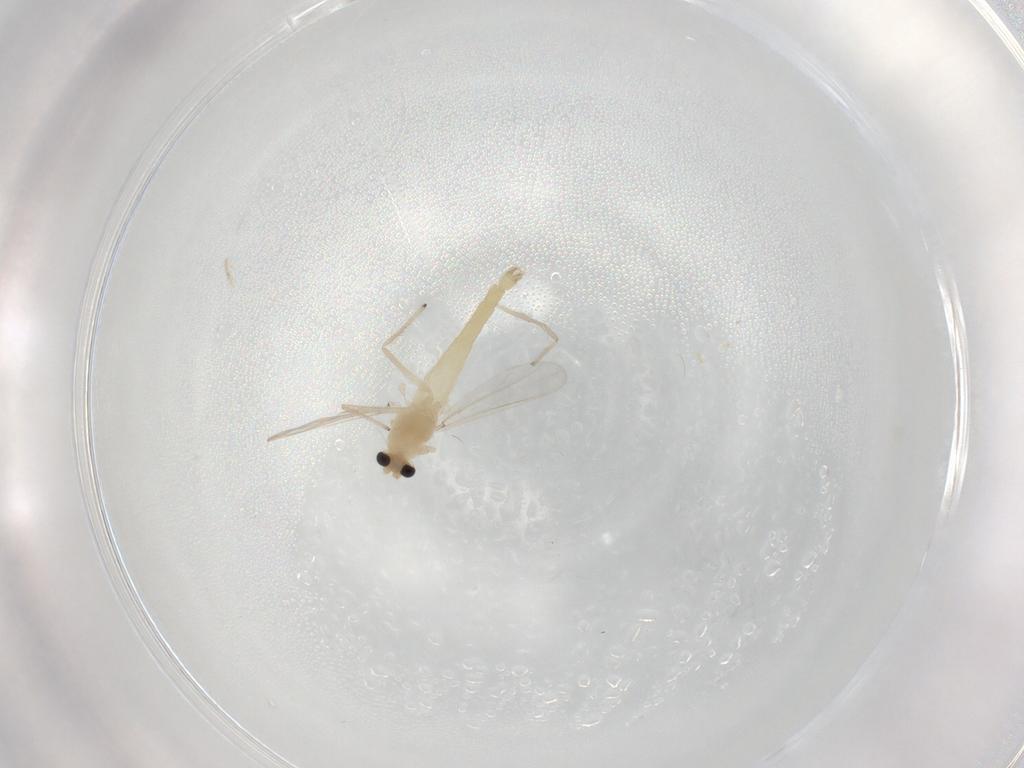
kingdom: Animalia
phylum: Arthropoda
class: Insecta
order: Diptera
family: Chironomidae
